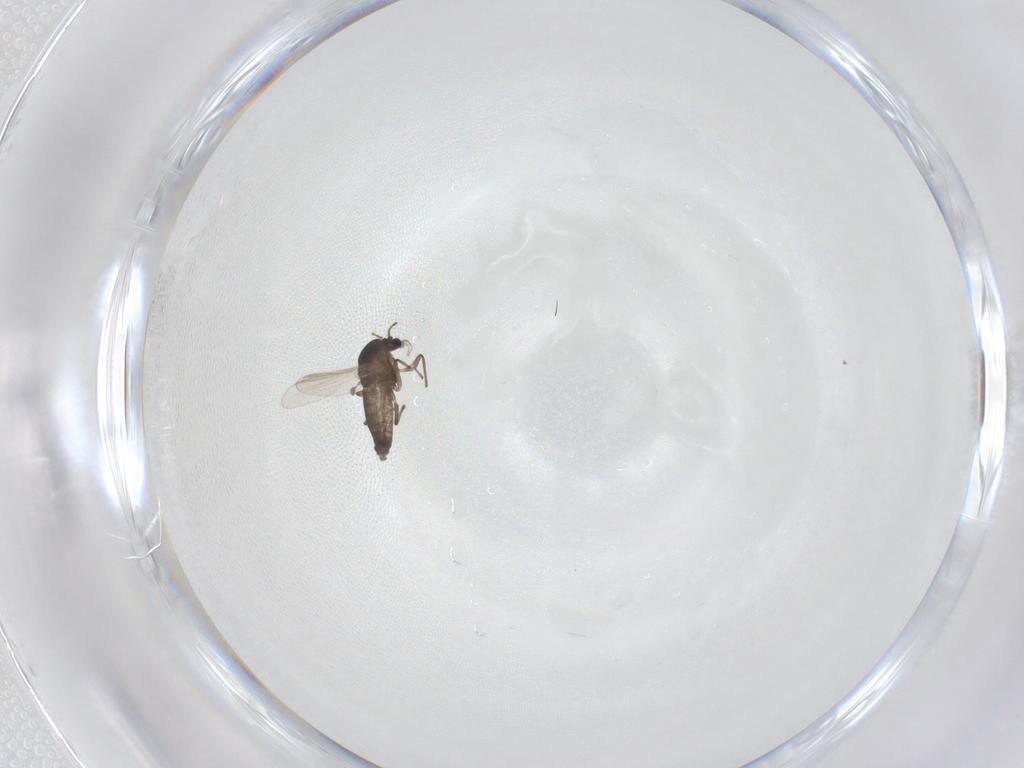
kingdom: Animalia
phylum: Arthropoda
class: Insecta
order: Diptera
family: Chironomidae
